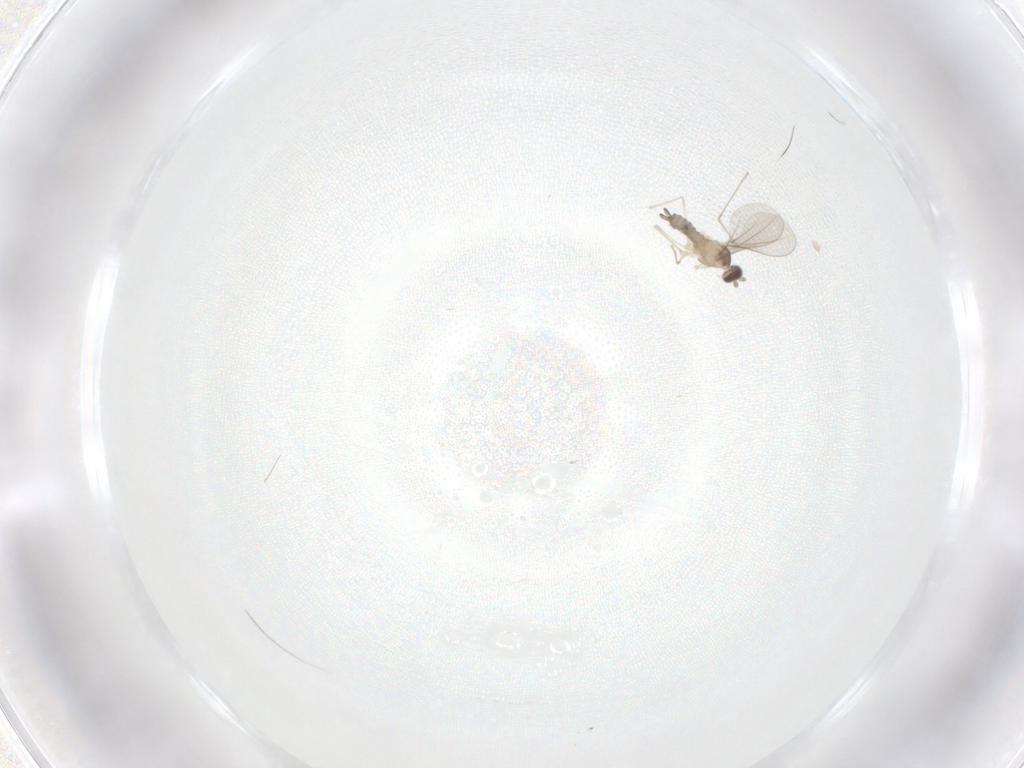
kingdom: Animalia
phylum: Arthropoda
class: Insecta
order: Diptera
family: Cecidomyiidae
